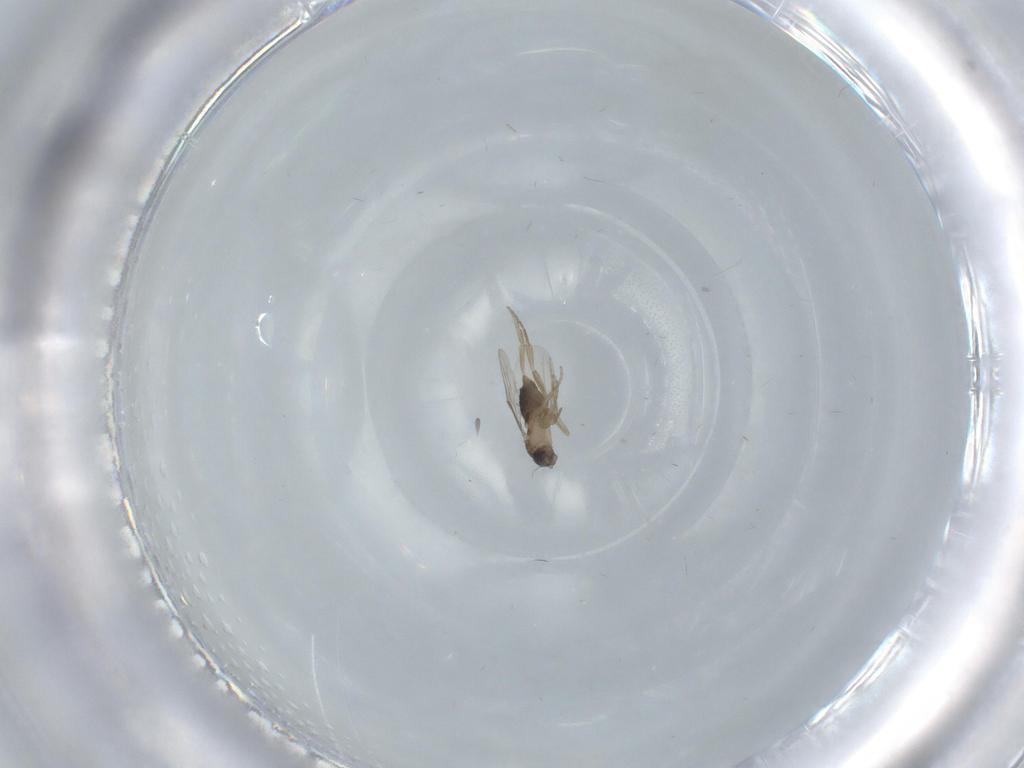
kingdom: Animalia
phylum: Arthropoda
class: Insecta
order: Diptera
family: Phoridae
